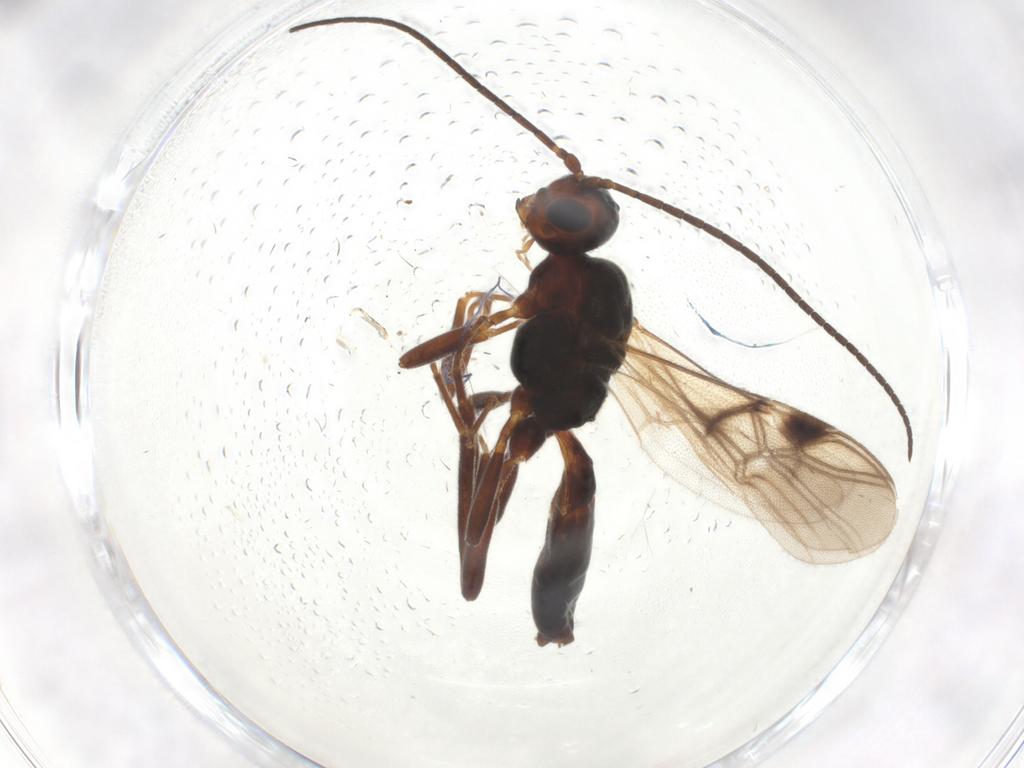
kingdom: Animalia
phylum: Arthropoda
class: Insecta
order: Hymenoptera
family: Braconidae
